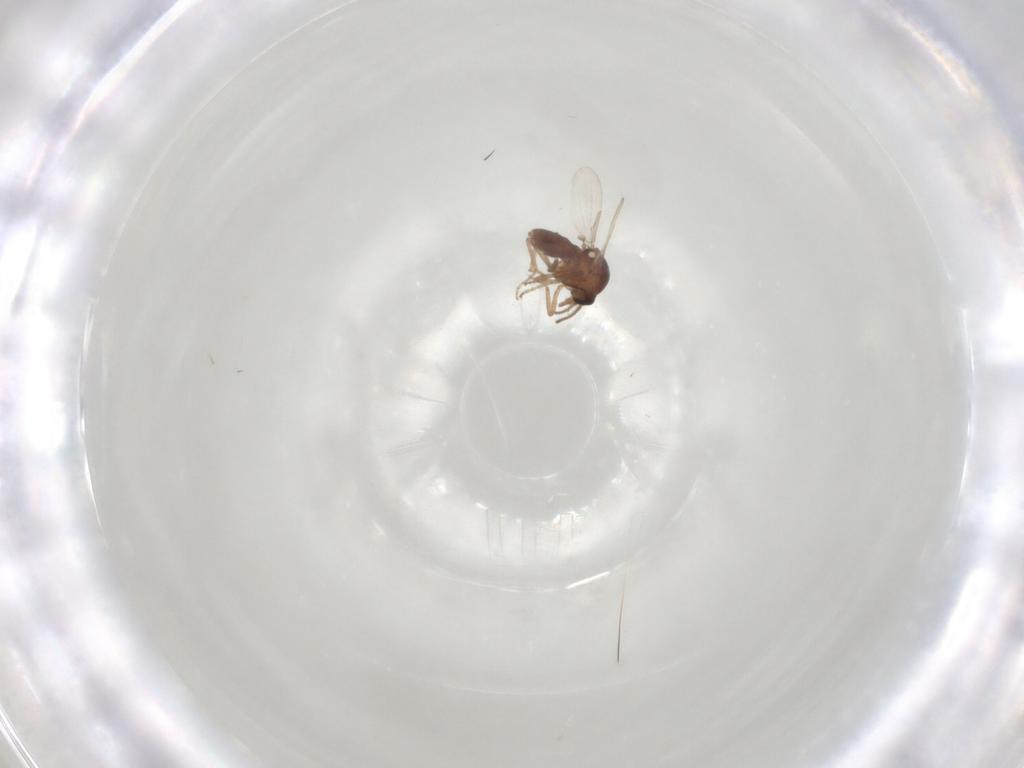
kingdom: Animalia
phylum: Arthropoda
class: Insecta
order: Diptera
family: Ceratopogonidae
